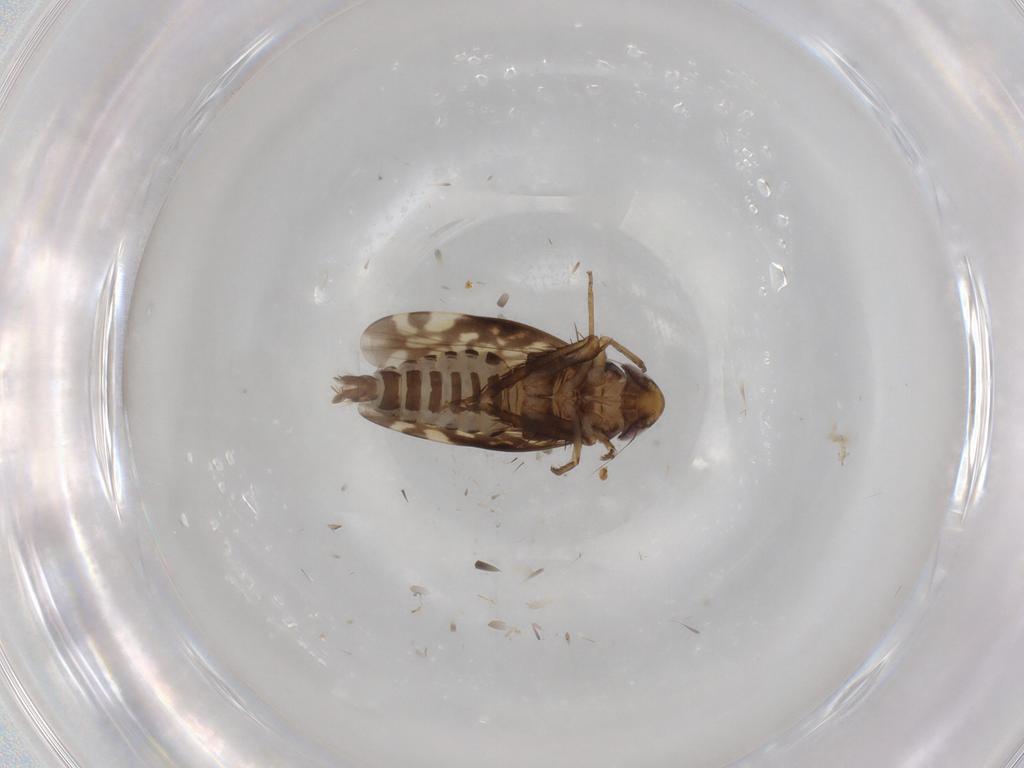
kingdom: Animalia
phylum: Arthropoda
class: Insecta
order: Hemiptera
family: Cicadellidae
